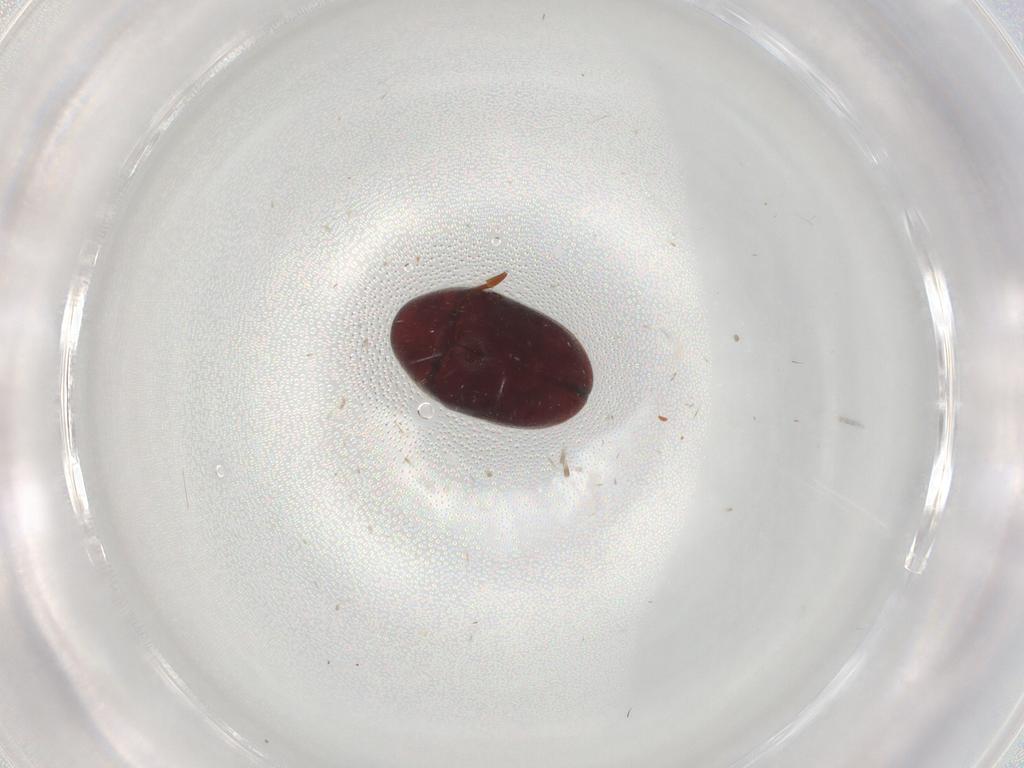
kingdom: Animalia
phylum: Arthropoda
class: Insecta
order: Coleoptera
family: Ptinidae
